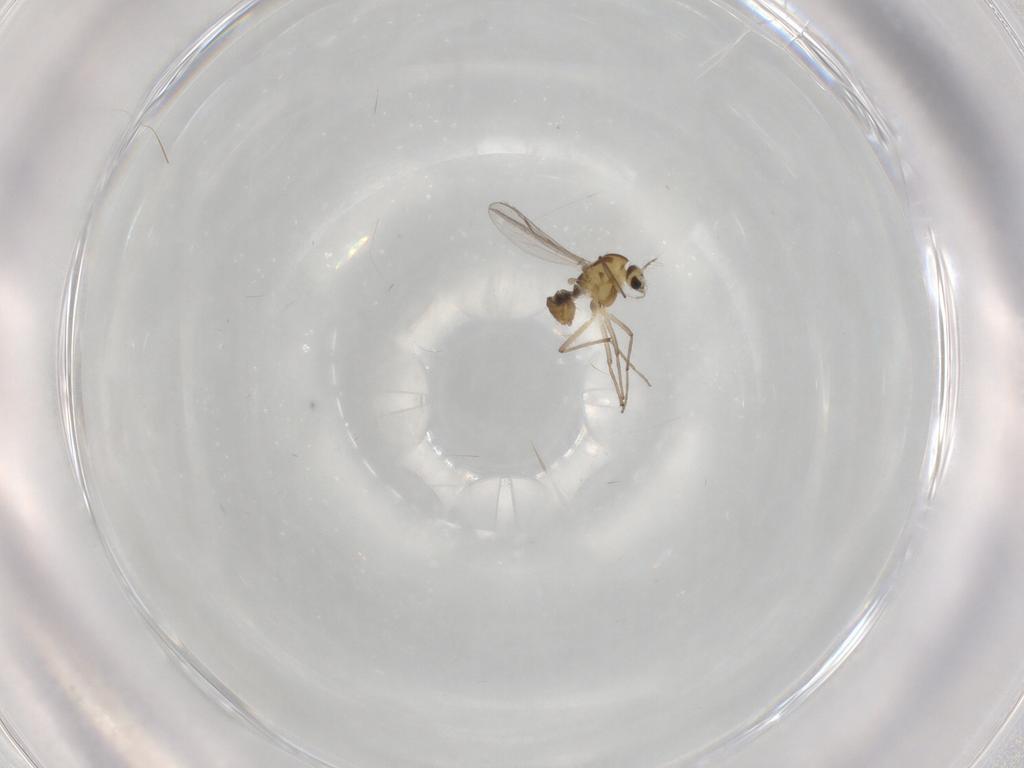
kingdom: Animalia
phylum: Arthropoda
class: Insecta
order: Diptera
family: Chironomidae
